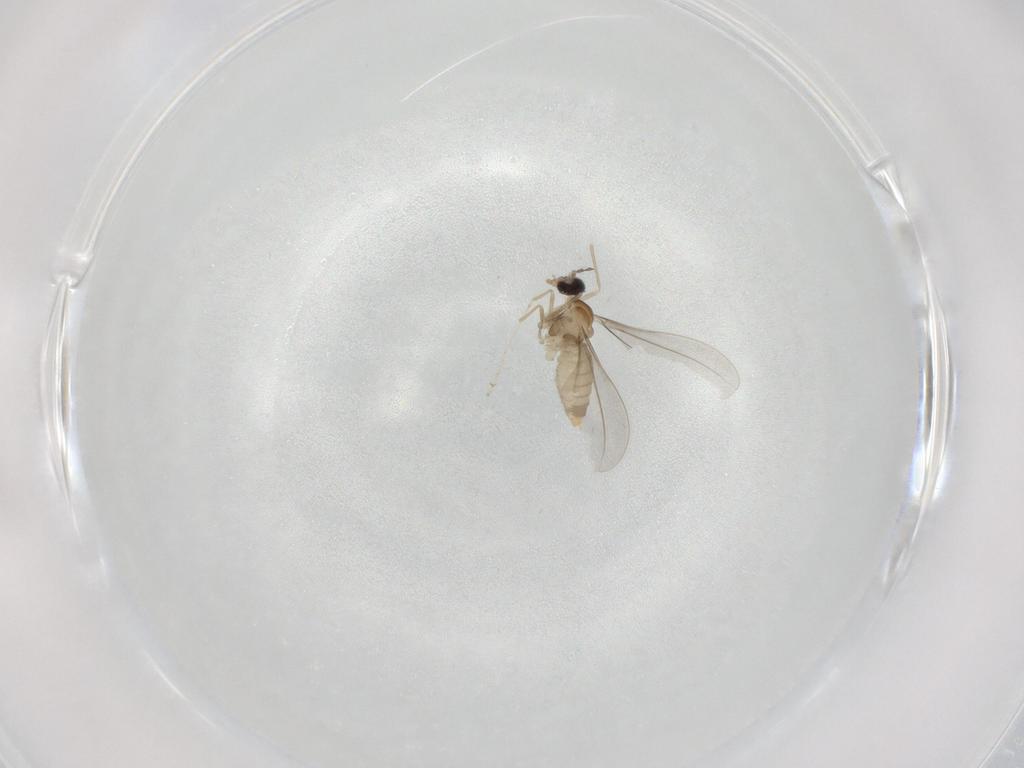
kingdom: Animalia
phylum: Arthropoda
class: Insecta
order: Diptera
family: Cecidomyiidae
